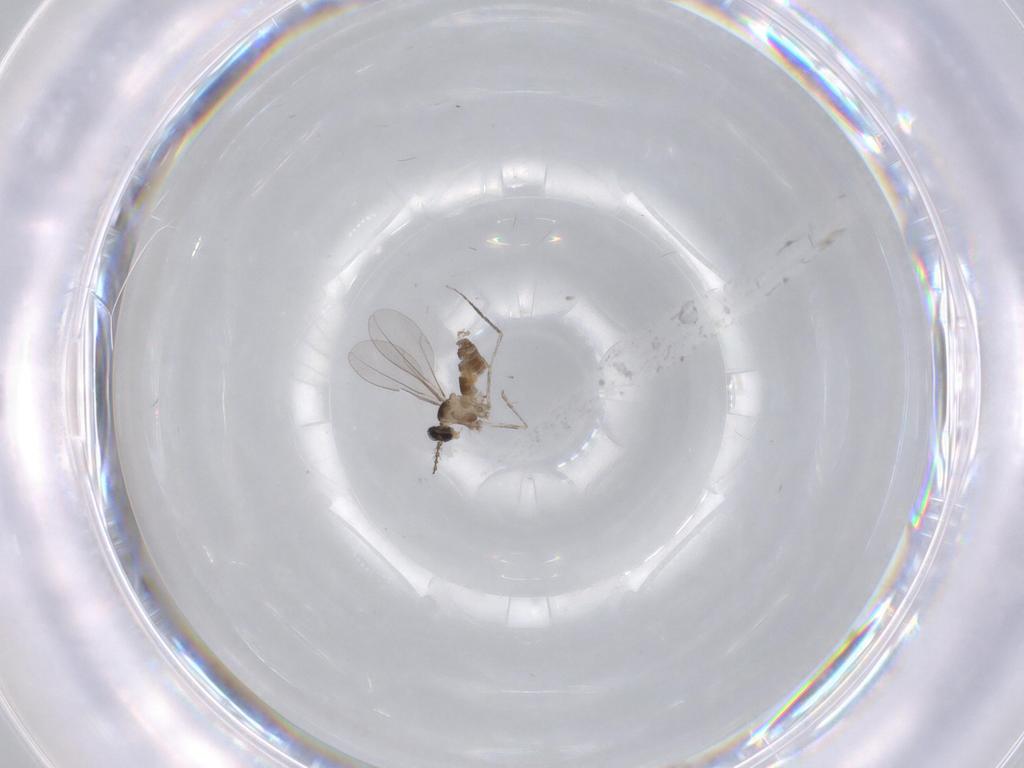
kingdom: Animalia
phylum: Arthropoda
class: Insecta
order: Diptera
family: Cecidomyiidae
